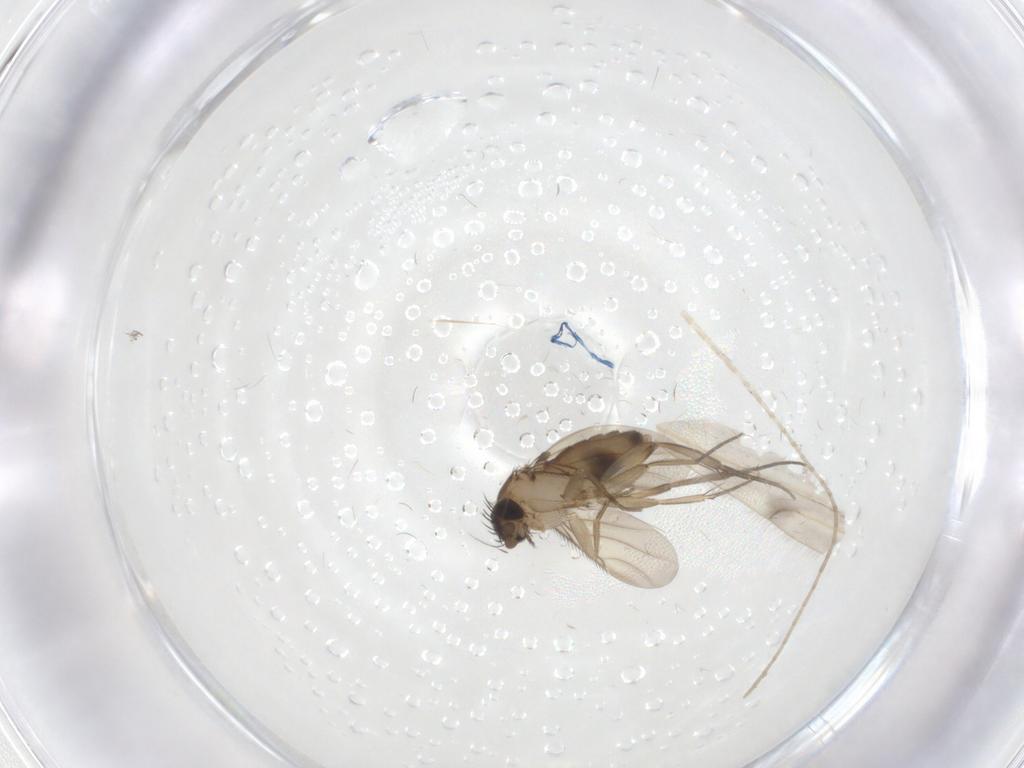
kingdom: Animalia
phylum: Arthropoda
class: Insecta
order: Diptera
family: Phoridae
